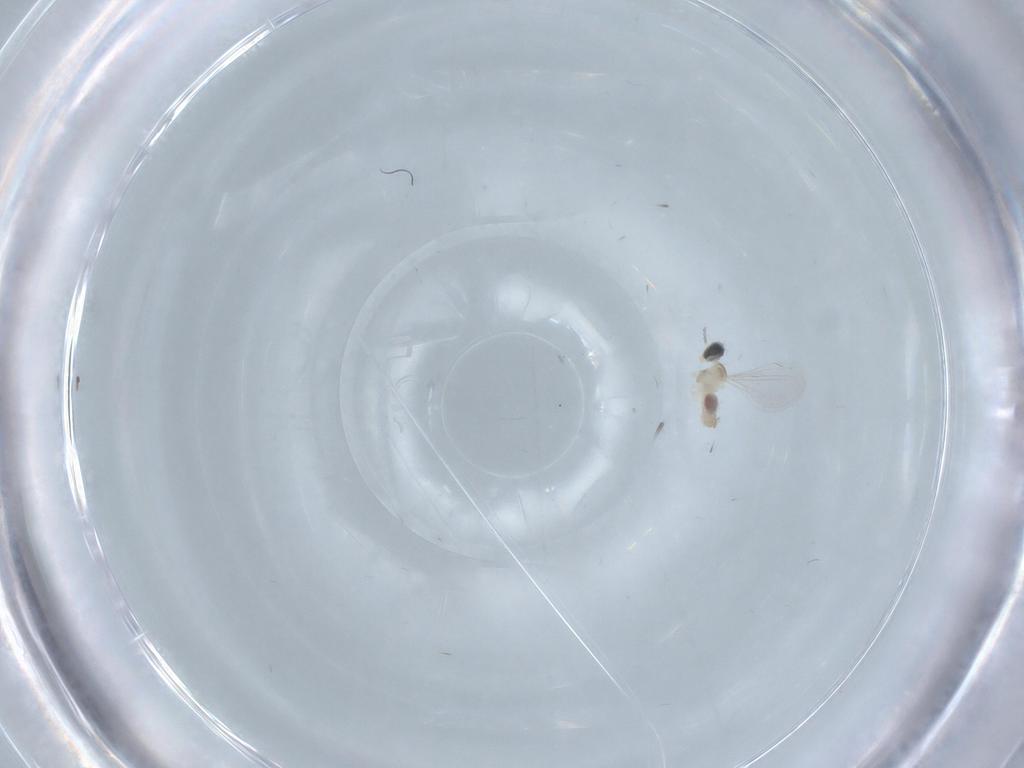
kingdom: Animalia
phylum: Arthropoda
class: Insecta
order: Diptera
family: Cecidomyiidae
